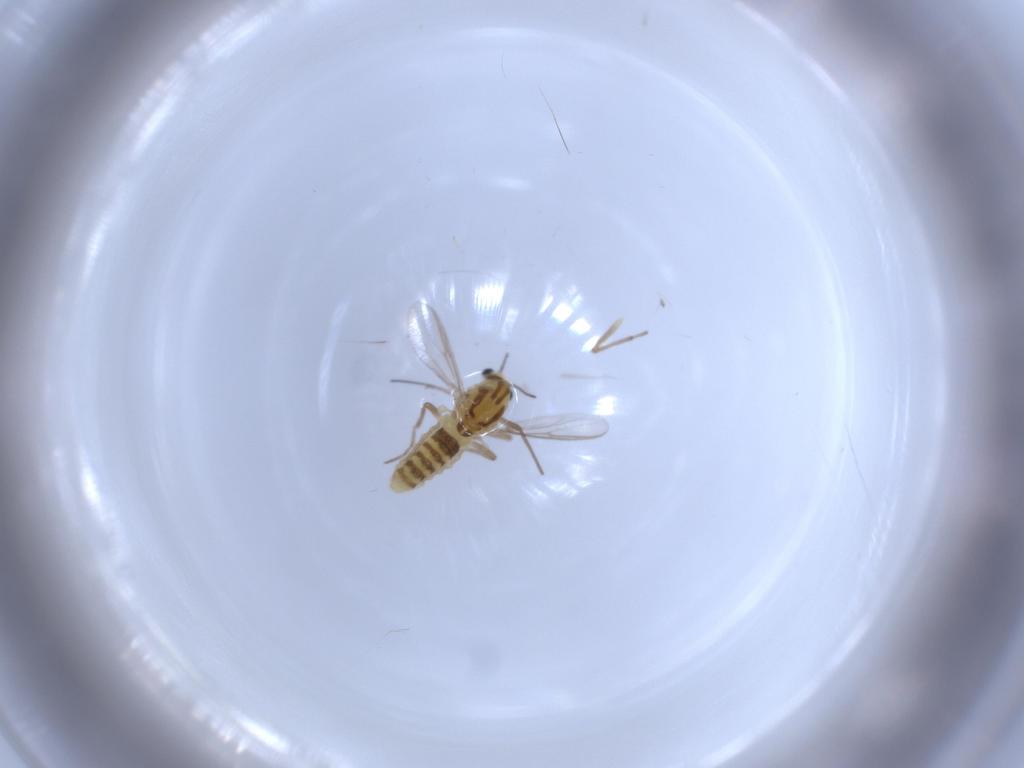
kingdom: Animalia
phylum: Arthropoda
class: Insecta
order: Diptera
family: Chironomidae
